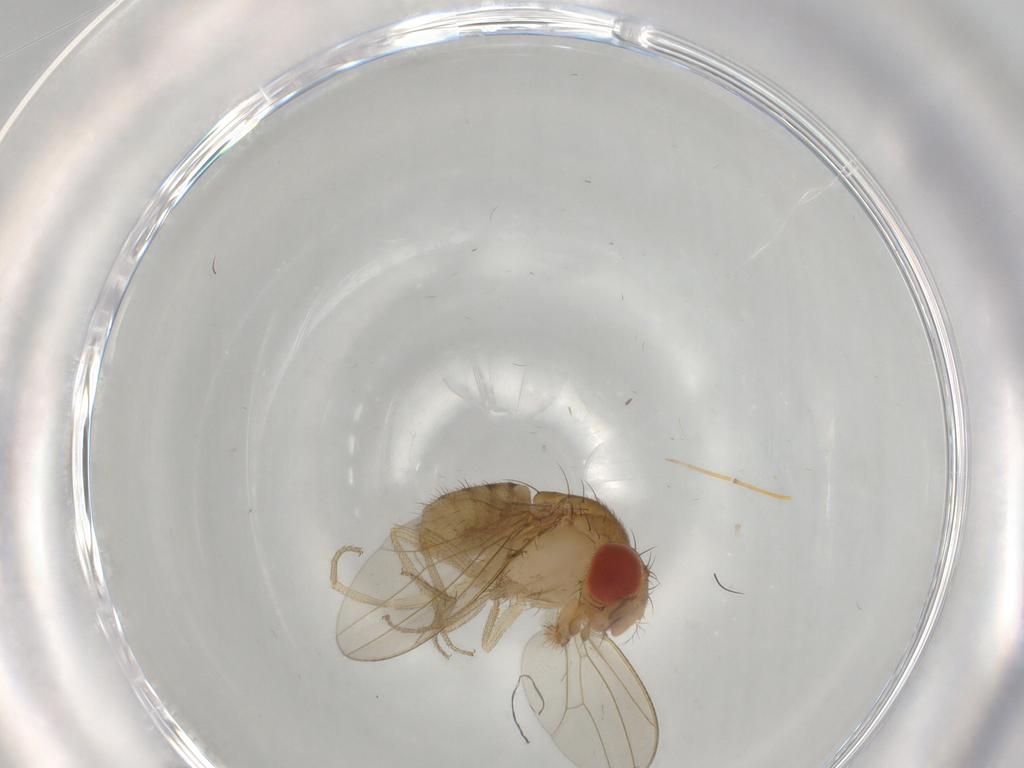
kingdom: Animalia
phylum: Arthropoda
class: Insecta
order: Diptera
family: Drosophilidae
